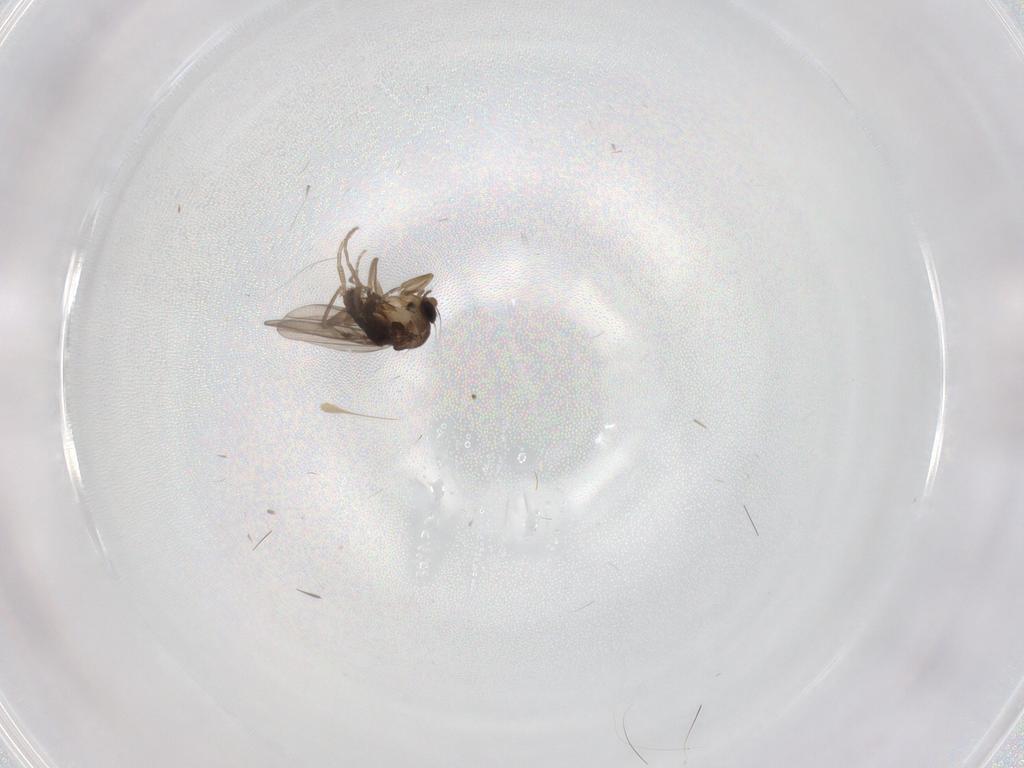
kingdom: Animalia
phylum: Arthropoda
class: Insecta
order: Diptera
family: Phoridae
